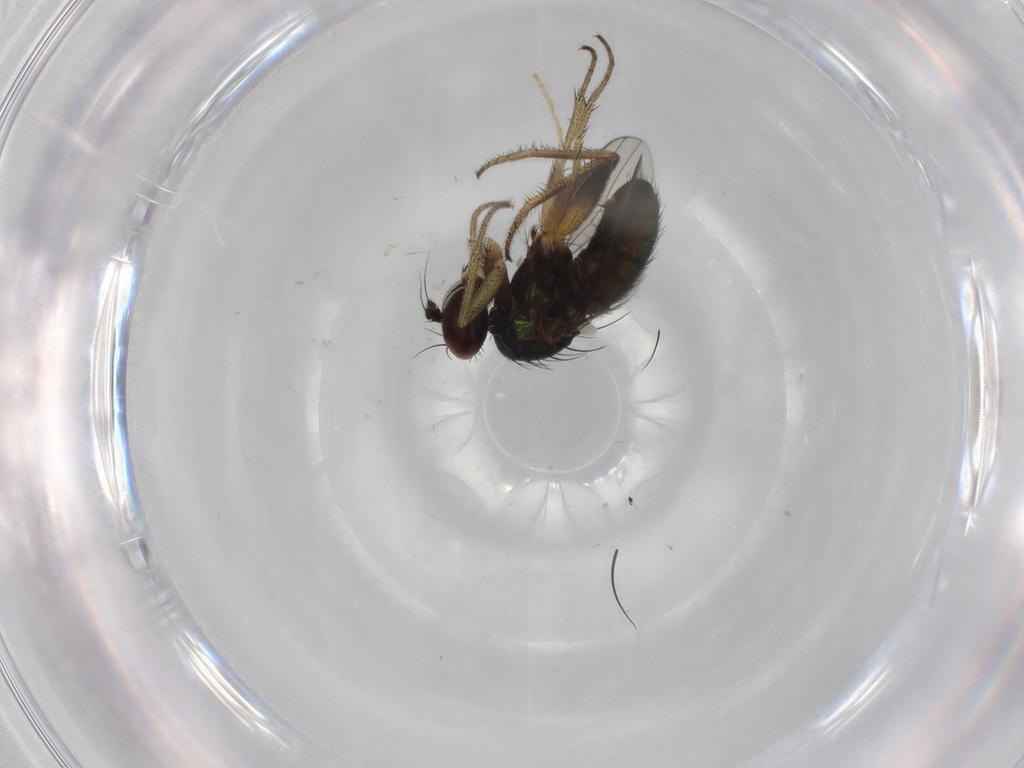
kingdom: Animalia
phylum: Arthropoda
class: Insecta
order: Diptera
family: Dolichopodidae
